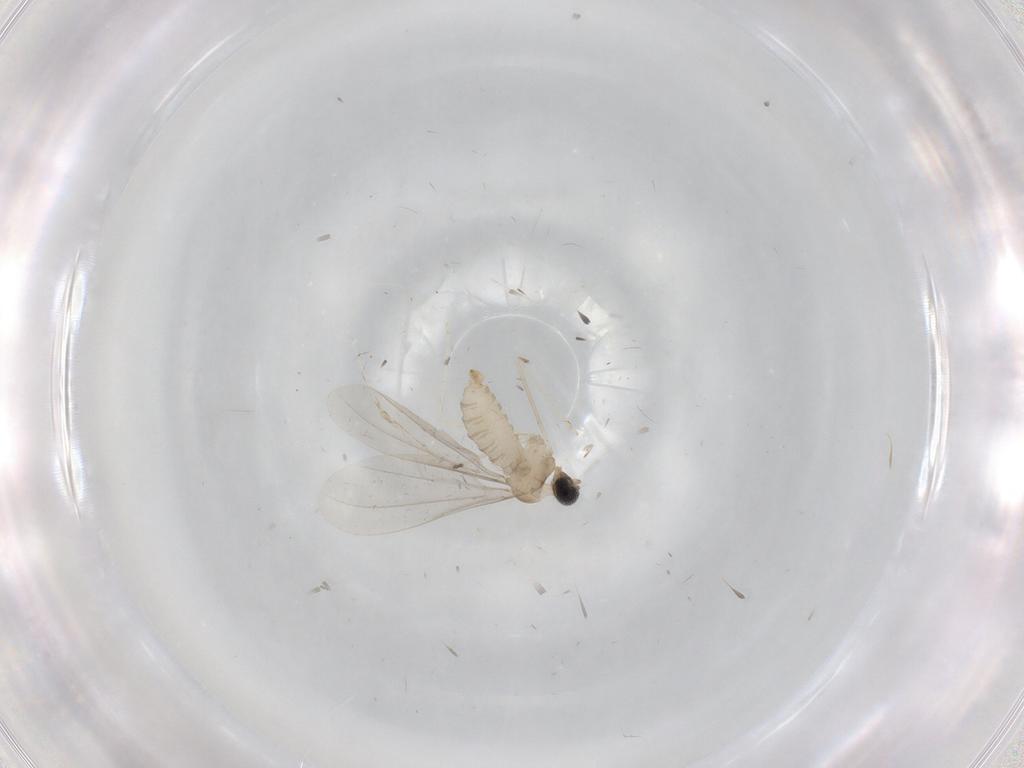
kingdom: Animalia
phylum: Arthropoda
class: Insecta
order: Diptera
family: Cecidomyiidae
